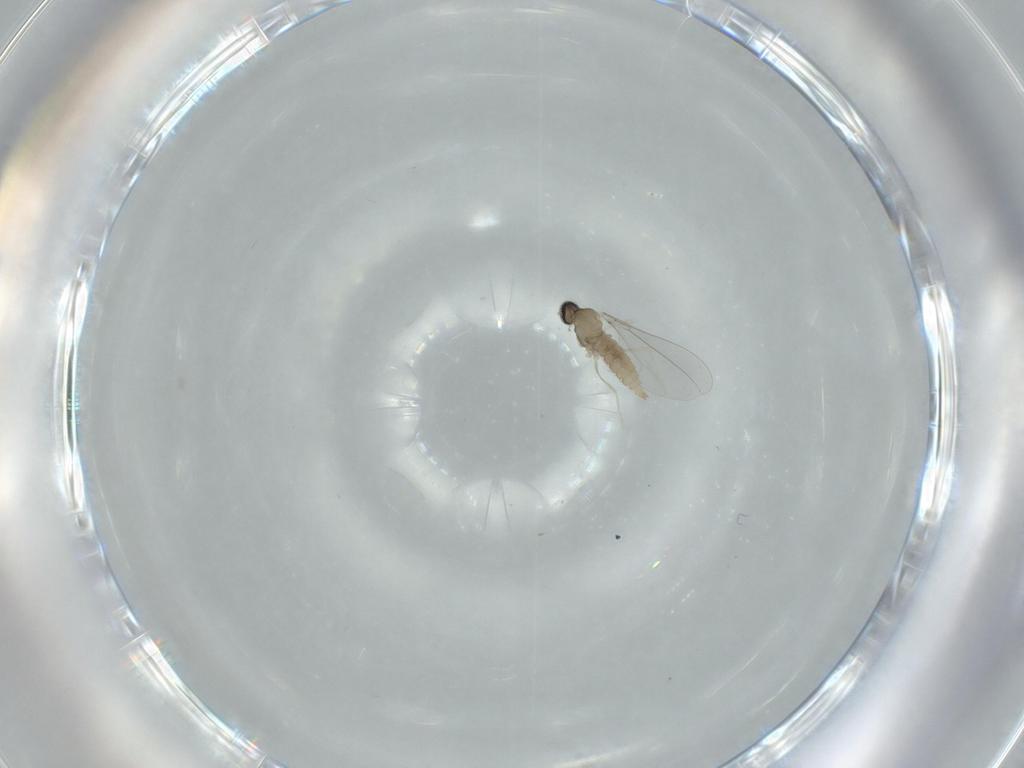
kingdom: Animalia
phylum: Arthropoda
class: Insecta
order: Diptera
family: Cecidomyiidae
